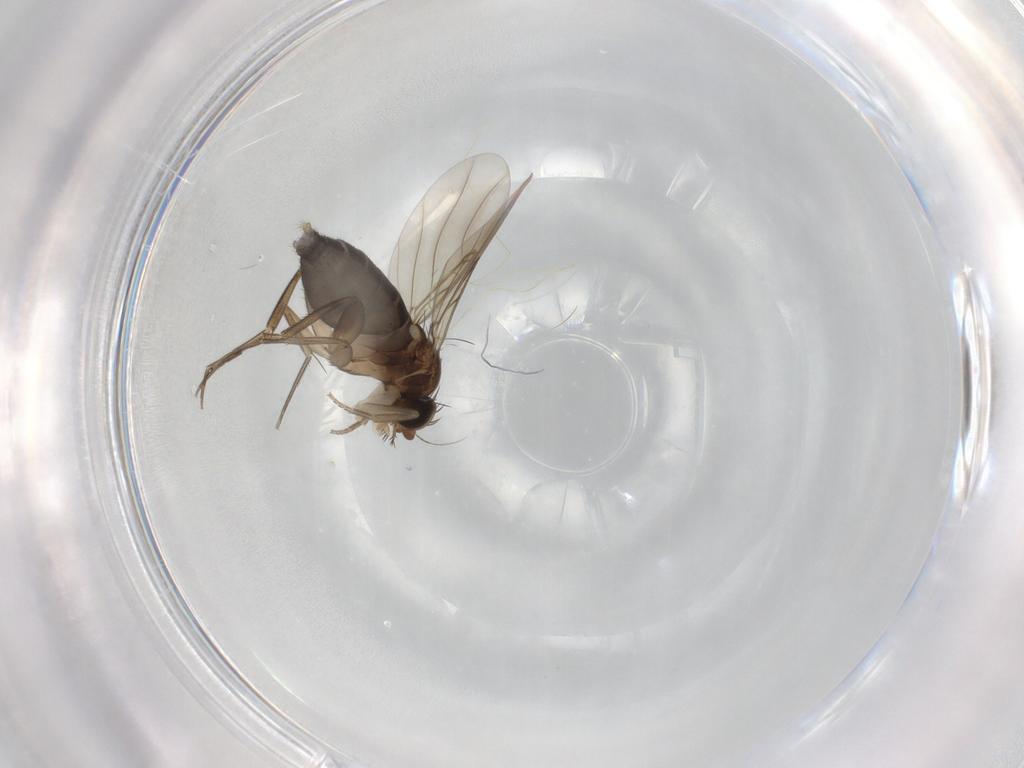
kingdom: Animalia
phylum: Arthropoda
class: Insecta
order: Diptera
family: Phoridae
